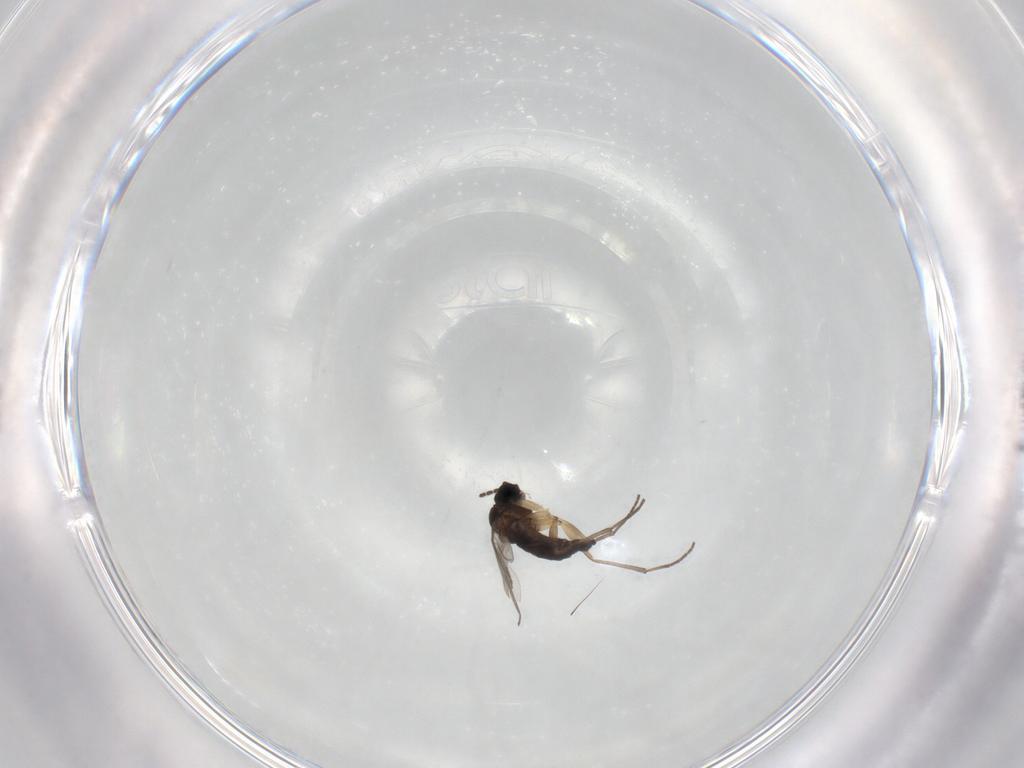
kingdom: Animalia
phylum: Arthropoda
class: Insecta
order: Diptera
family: Sciaridae
